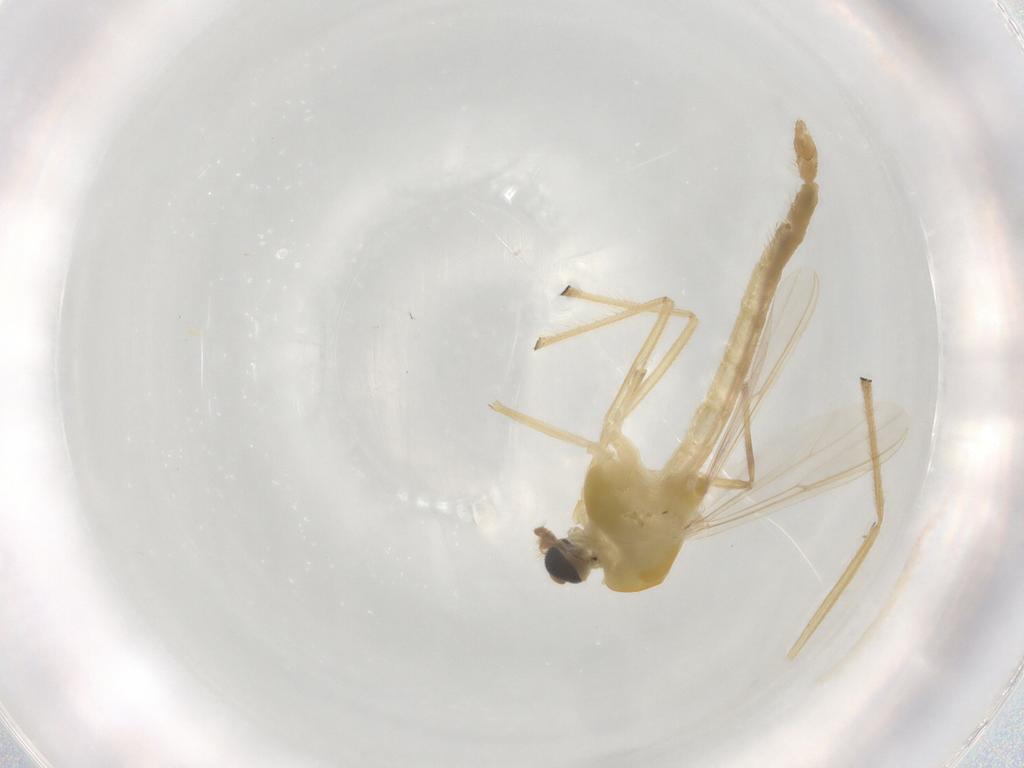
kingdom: Animalia
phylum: Arthropoda
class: Insecta
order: Diptera
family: Chironomidae
